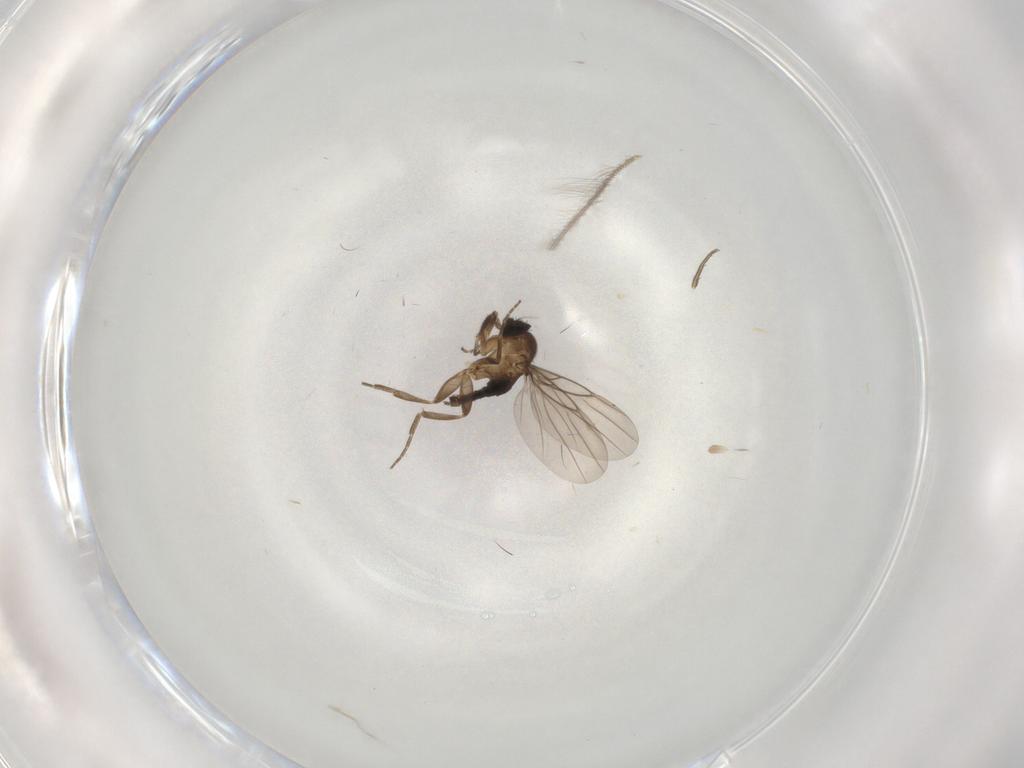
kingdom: Animalia
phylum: Arthropoda
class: Insecta
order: Diptera
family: Cecidomyiidae
